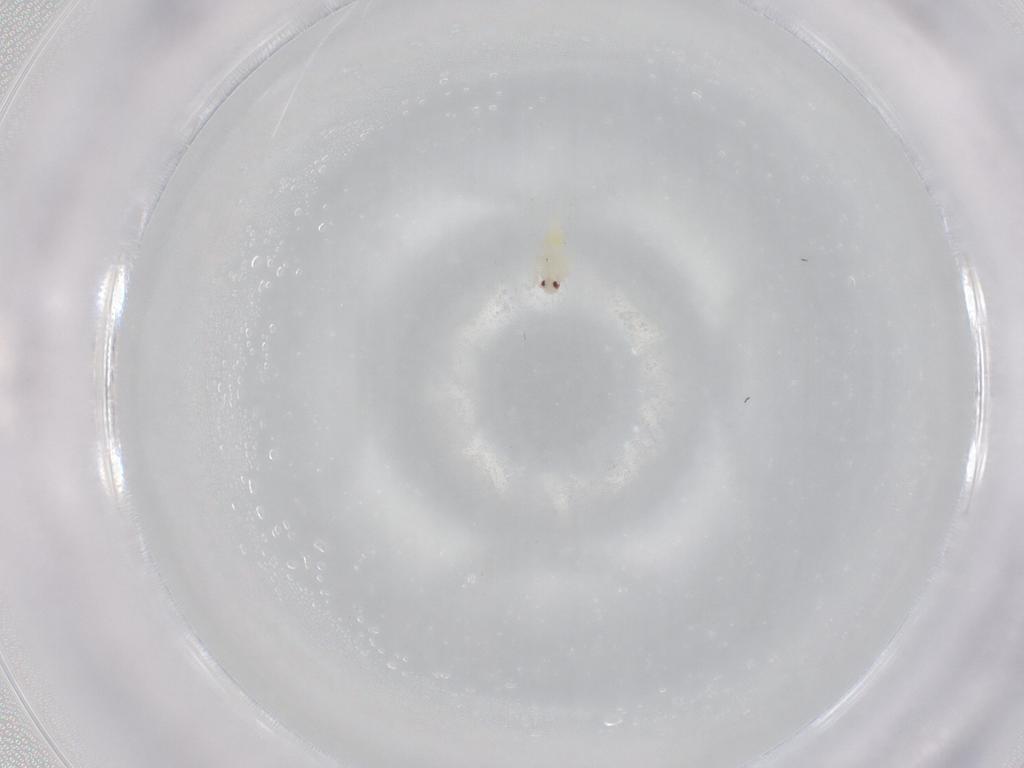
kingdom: Animalia
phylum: Arthropoda
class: Insecta
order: Hemiptera
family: Aleyrodidae
